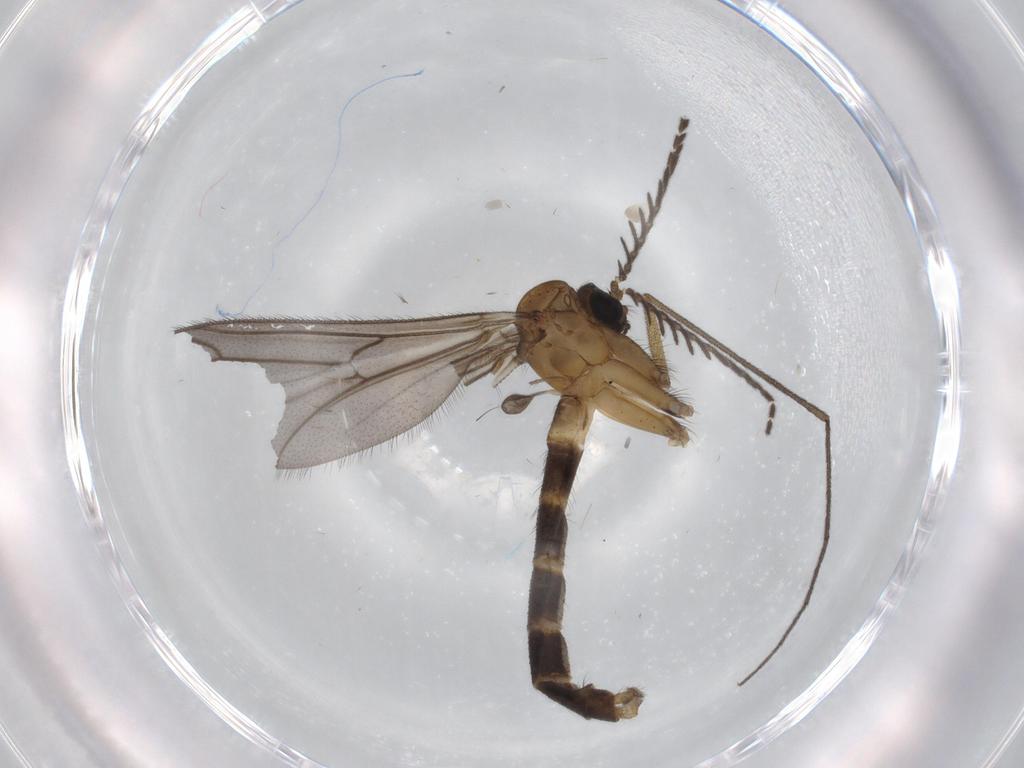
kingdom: Animalia
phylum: Arthropoda
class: Insecta
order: Diptera
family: Ditomyiidae
